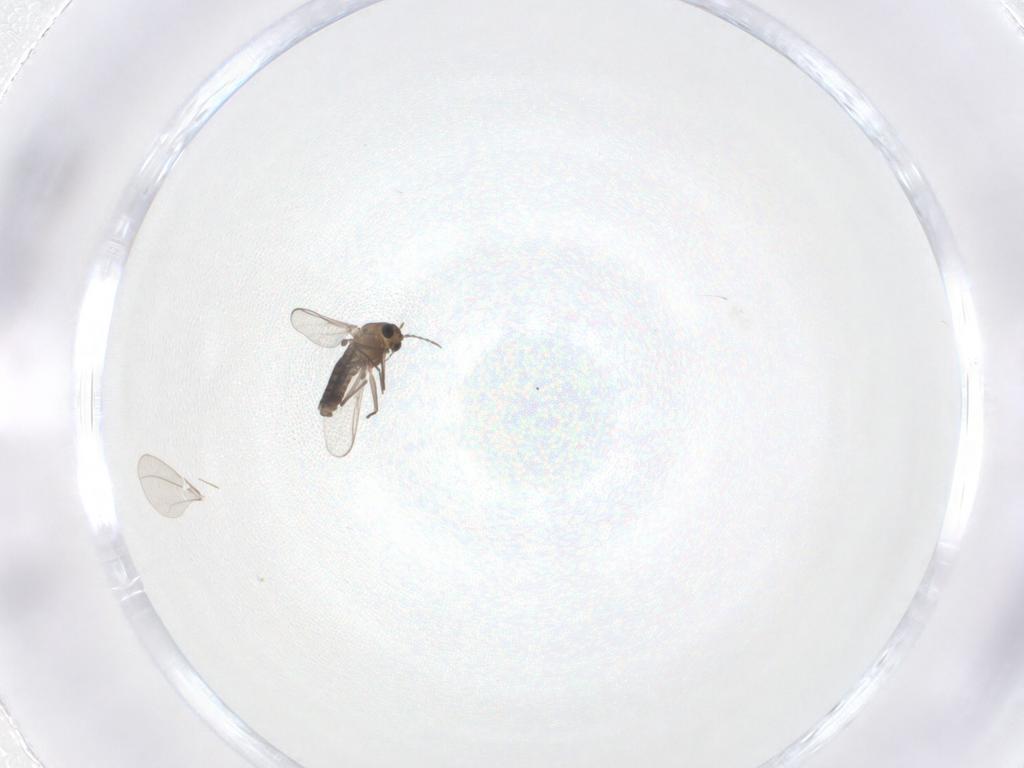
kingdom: Animalia
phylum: Arthropoda
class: Insecta
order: Diptera
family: Chironomidae
